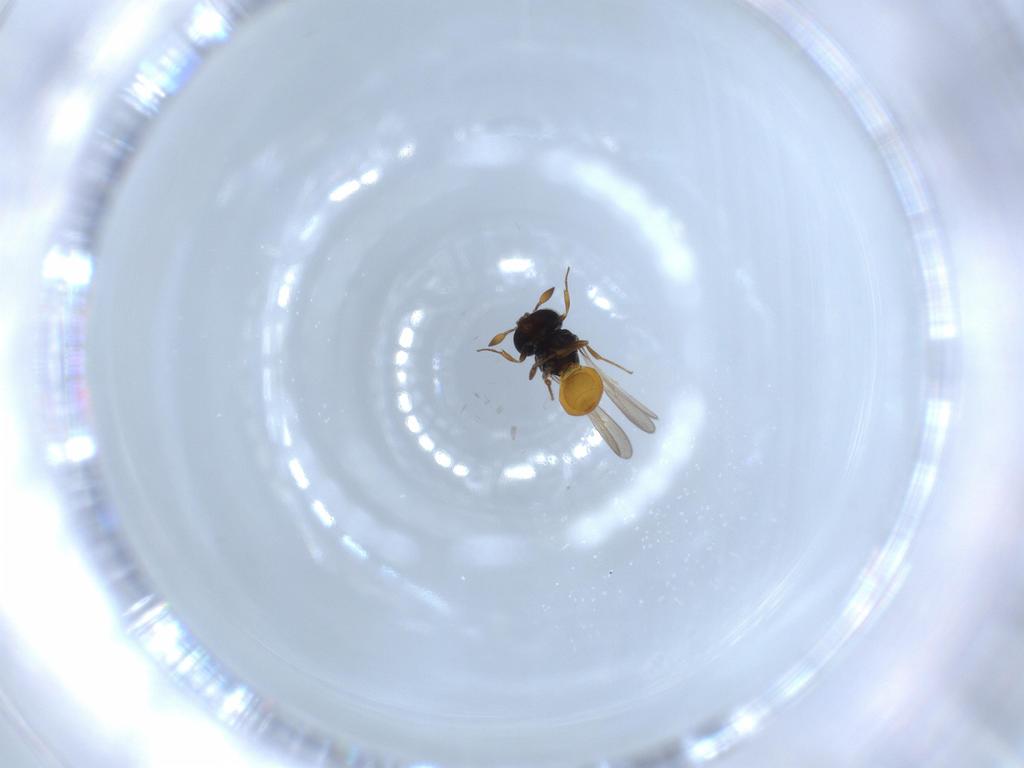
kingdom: Animalia
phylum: Arthropoda
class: Insecta
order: Hymenoptera
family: Scelionidae
